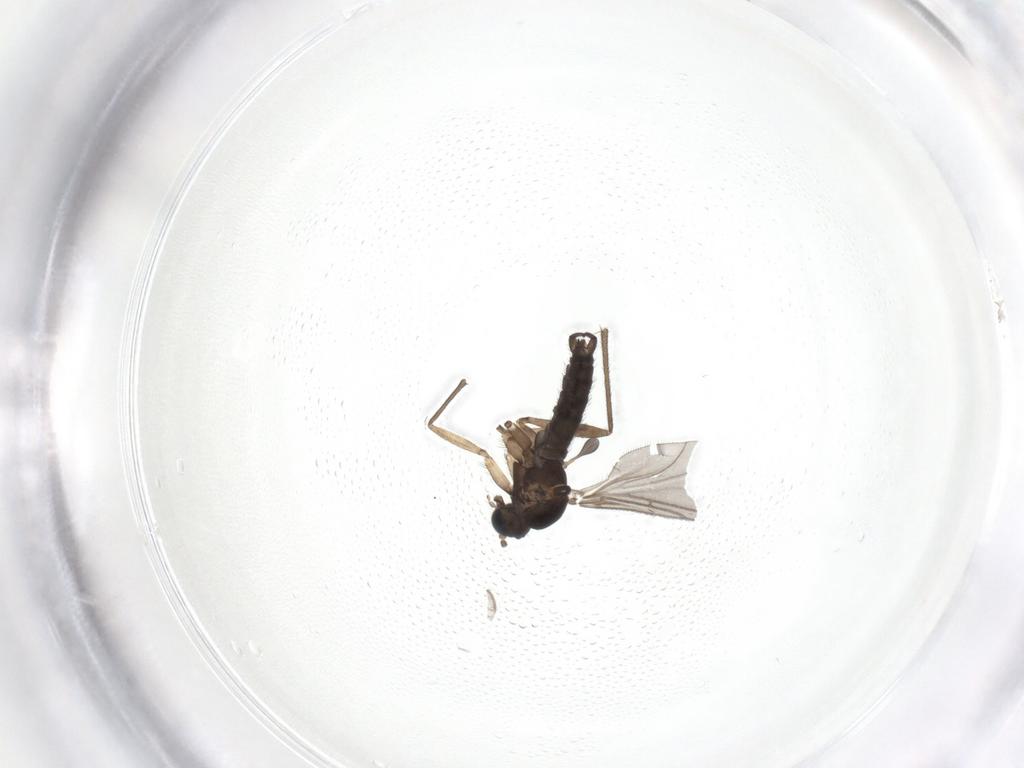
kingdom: Animalia
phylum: Arthropoda
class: Insecta
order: Diptera
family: Sciaridae
